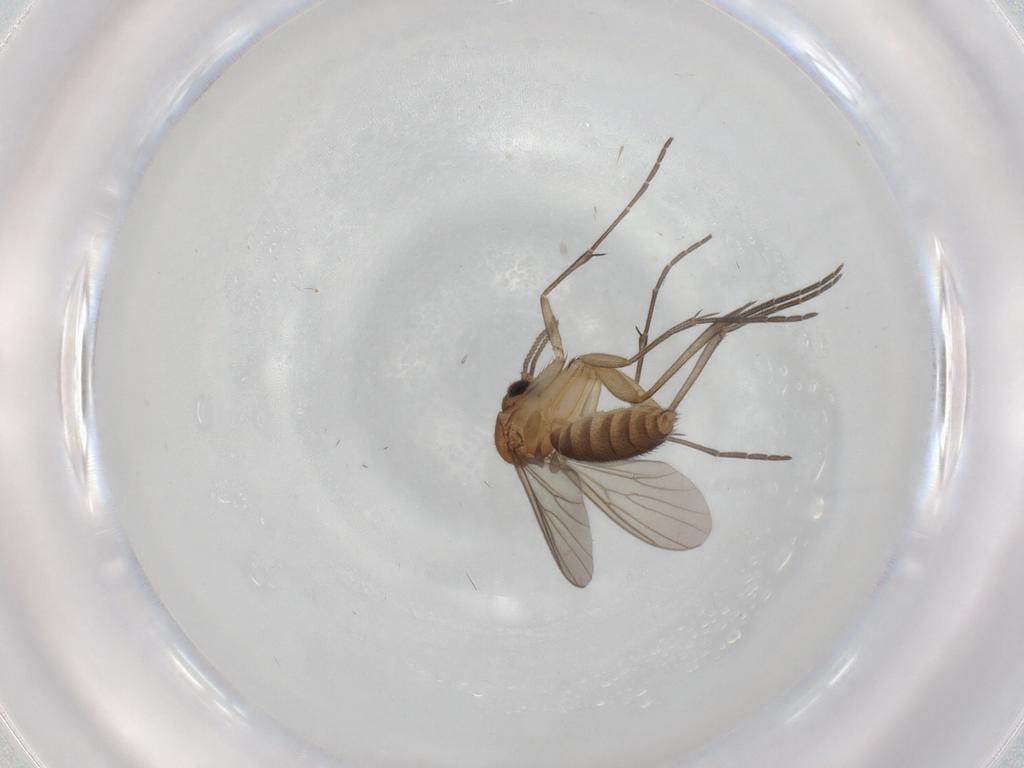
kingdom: Animalia
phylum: Arthropoda
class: Insecta
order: Diptera
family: Mycetophilidae
